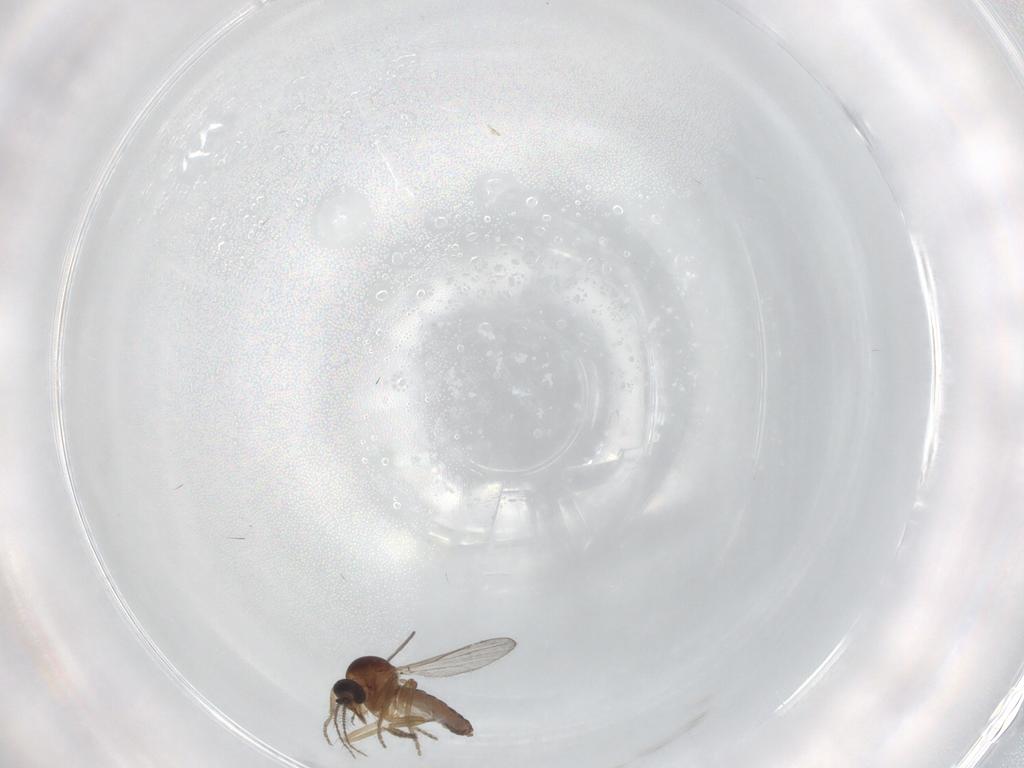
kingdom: Animalia
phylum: Arthropoda
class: Insecta
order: Diptera
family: Ceratopogonidae
